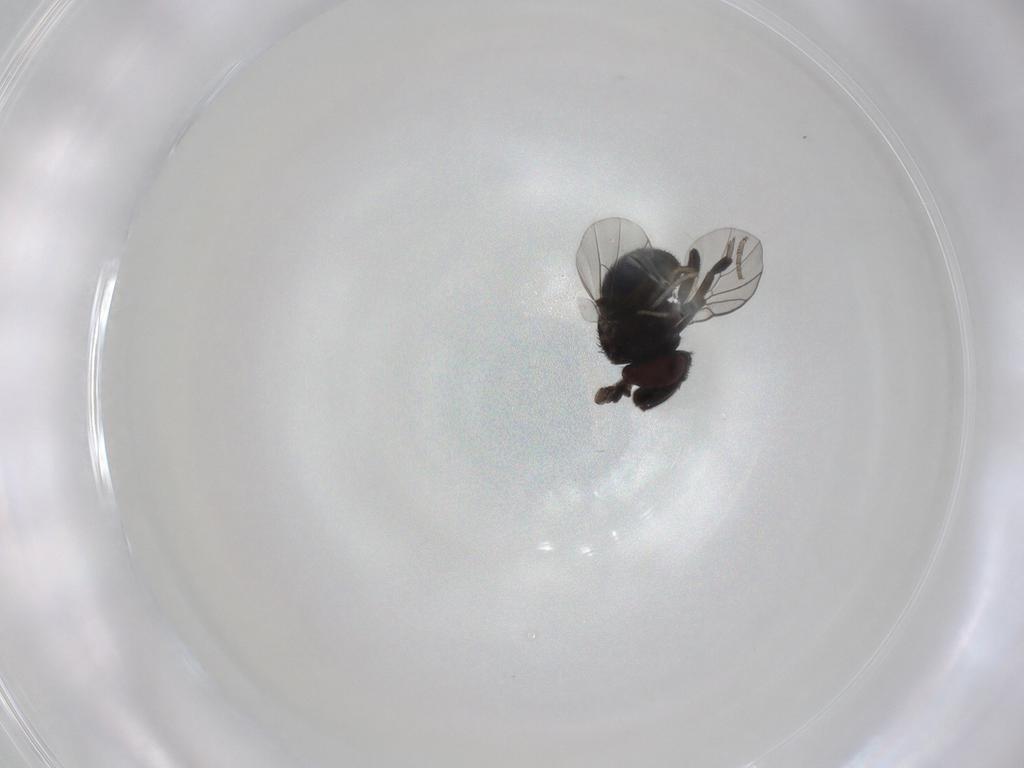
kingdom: Animalia
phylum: Arthropoda
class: Insecta
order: Diptera
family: Cryptochetidae
